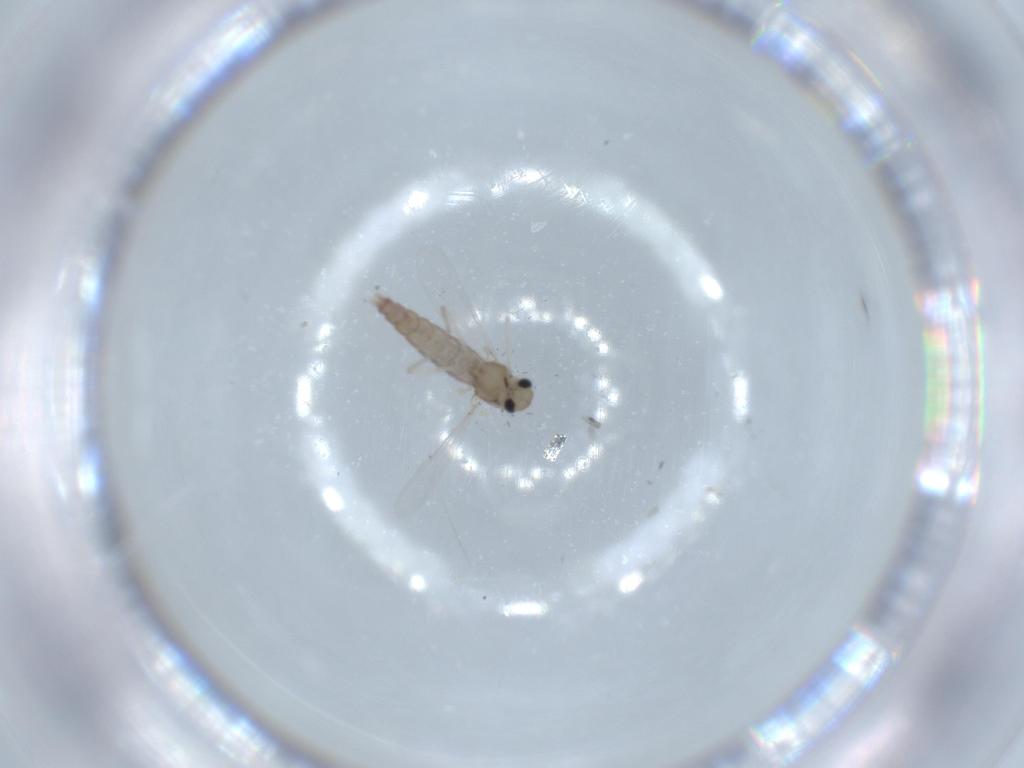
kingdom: Animalia
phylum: Arthropoda
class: Insecta
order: Diptera
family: Chironomidae
